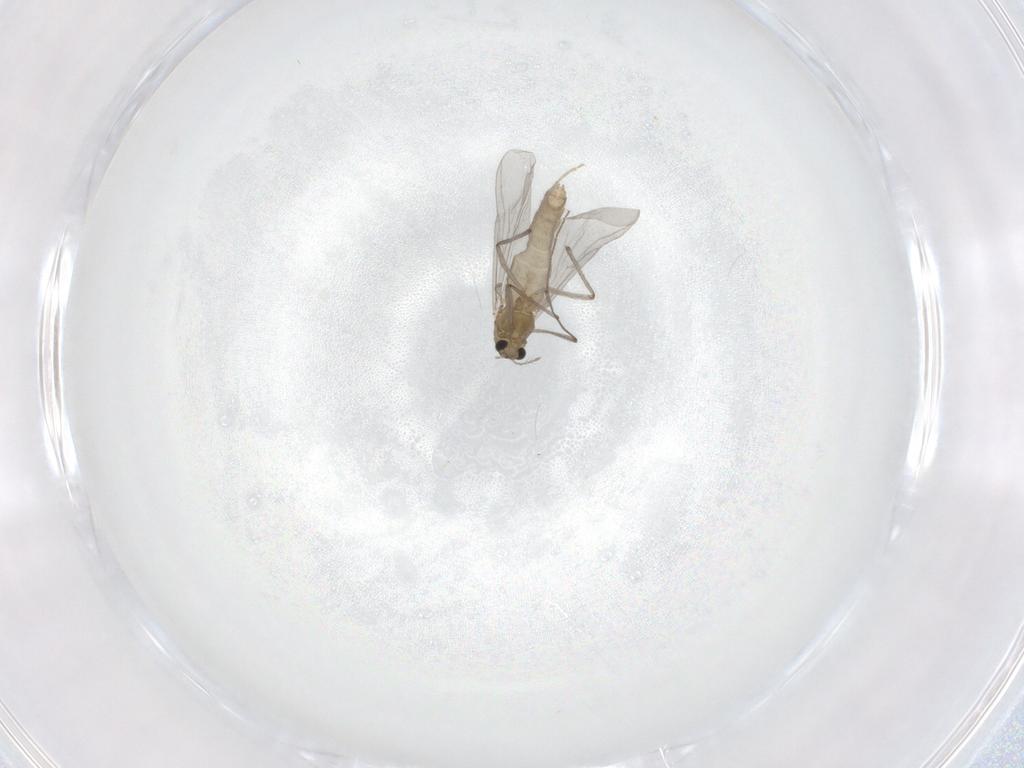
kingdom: Animalia
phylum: Arthropoda
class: Insecta
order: Diptera
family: Chironomidae
